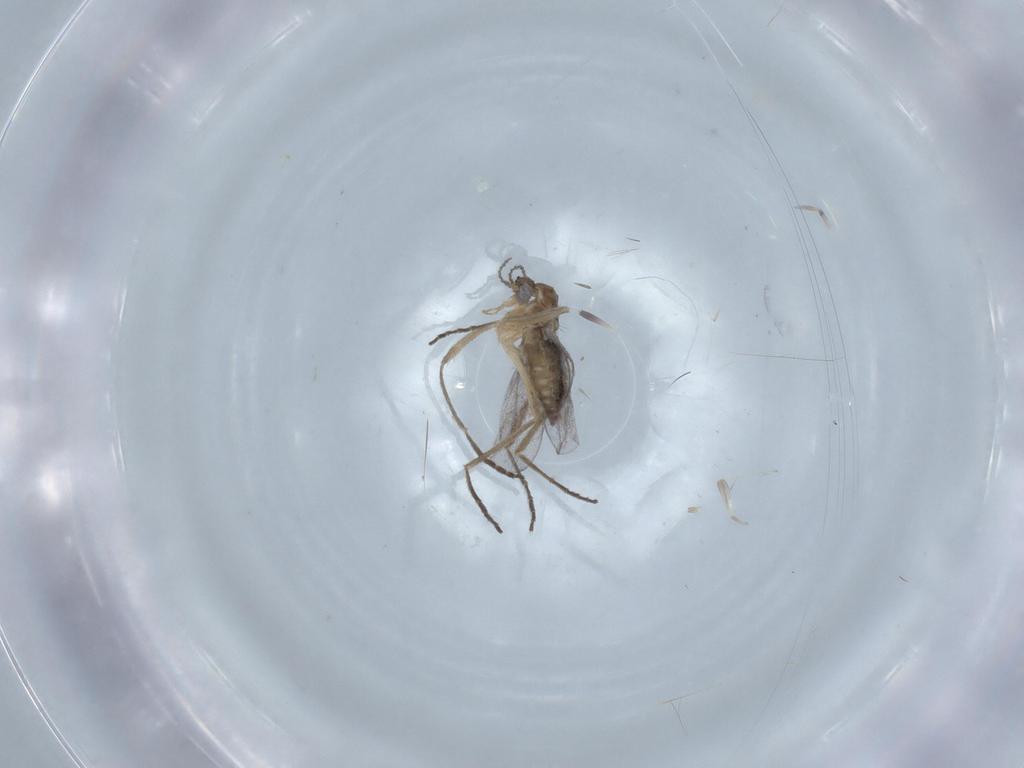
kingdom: Animalia
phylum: Arthropoda
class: Insecta
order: Diptera
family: Cecidomyiidae
